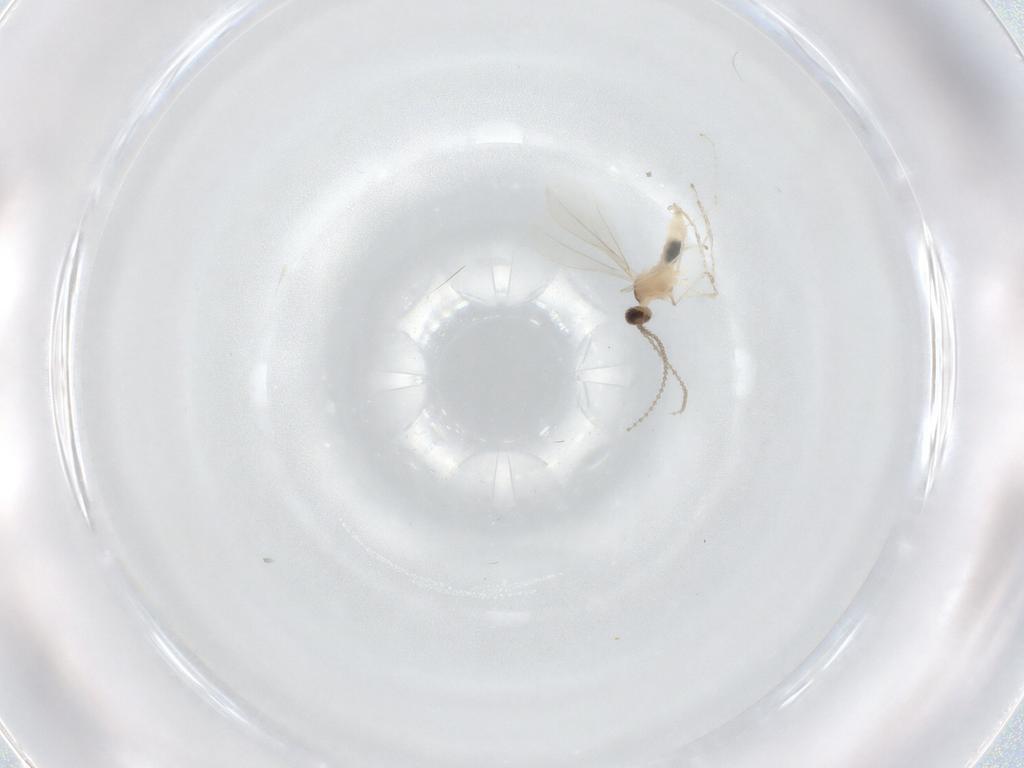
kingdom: Animalia
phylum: Arthropoda
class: Insecta
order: Diptera
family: Cecidomyiidae
